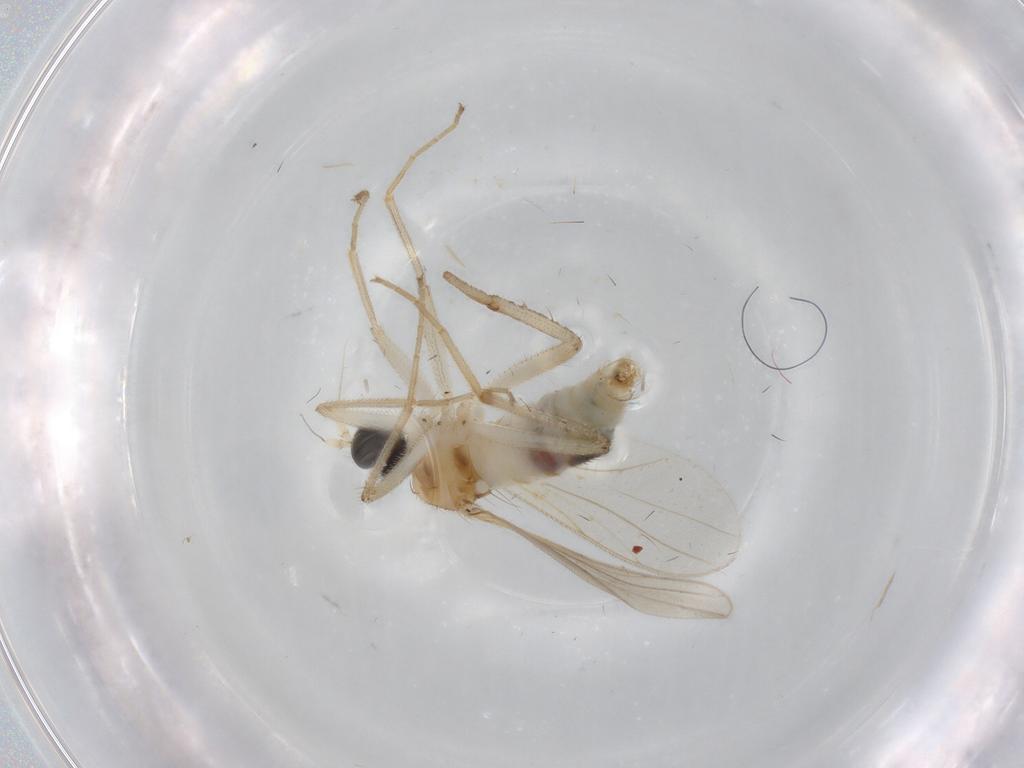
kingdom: Animalia
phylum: Arthropoda
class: Insecta
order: Diptera
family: Hybotidae
